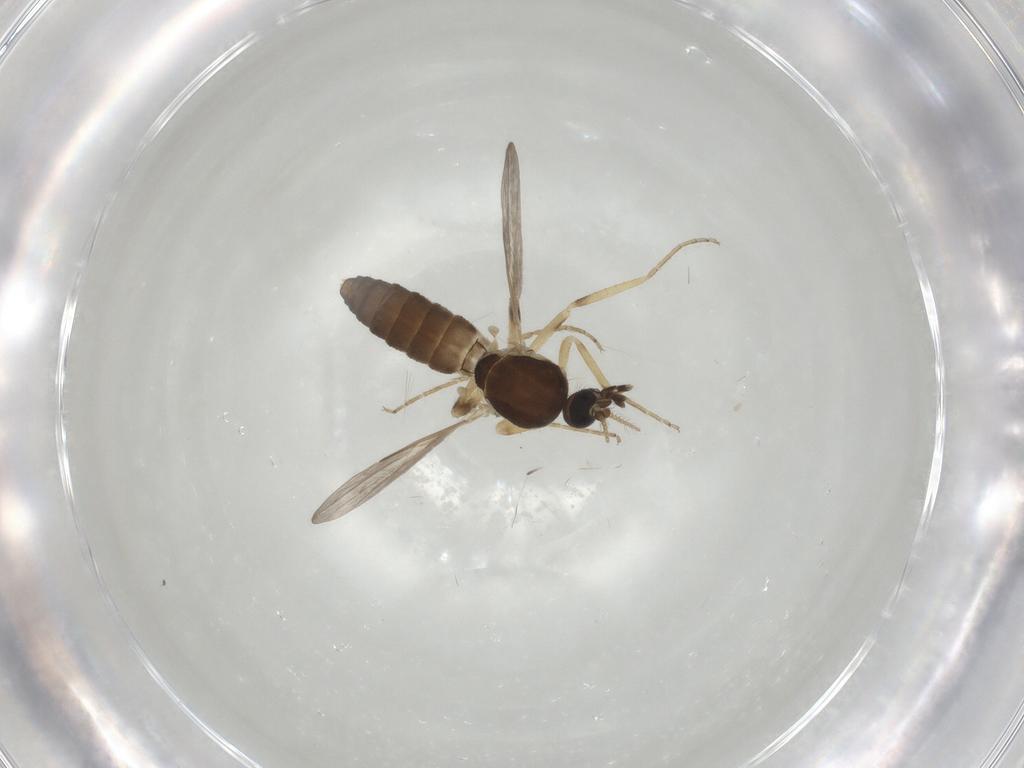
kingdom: Animalia
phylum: Arthropoda
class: Insecta
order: Diptera
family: Ceratopogonidae
